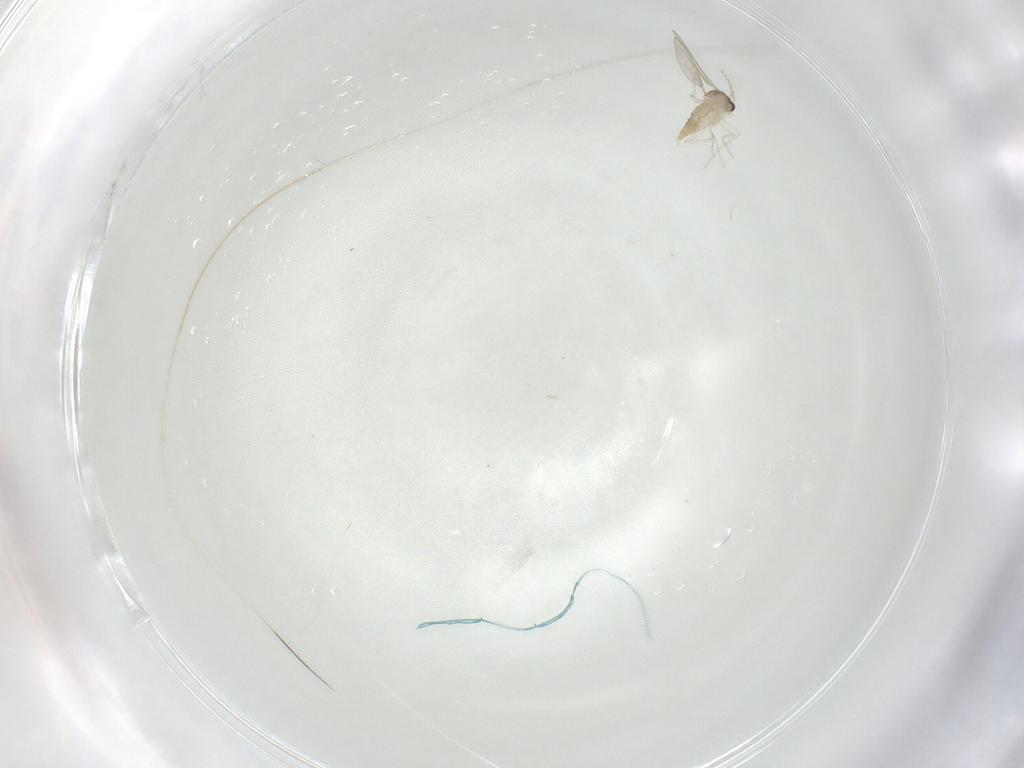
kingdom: Animalia
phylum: Arthropoda
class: Insecta
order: Diptera
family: Cecidomyiidae
